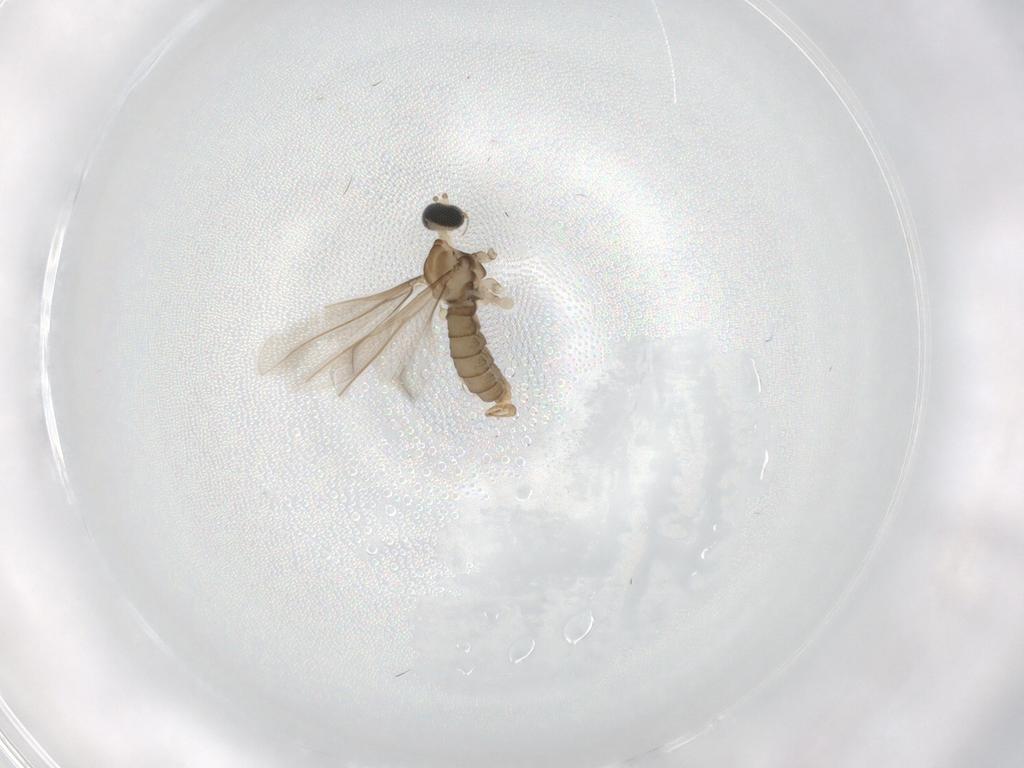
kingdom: Animalia
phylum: Arthropoda
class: Insecta
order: Diptera
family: Cecidomyiidae
